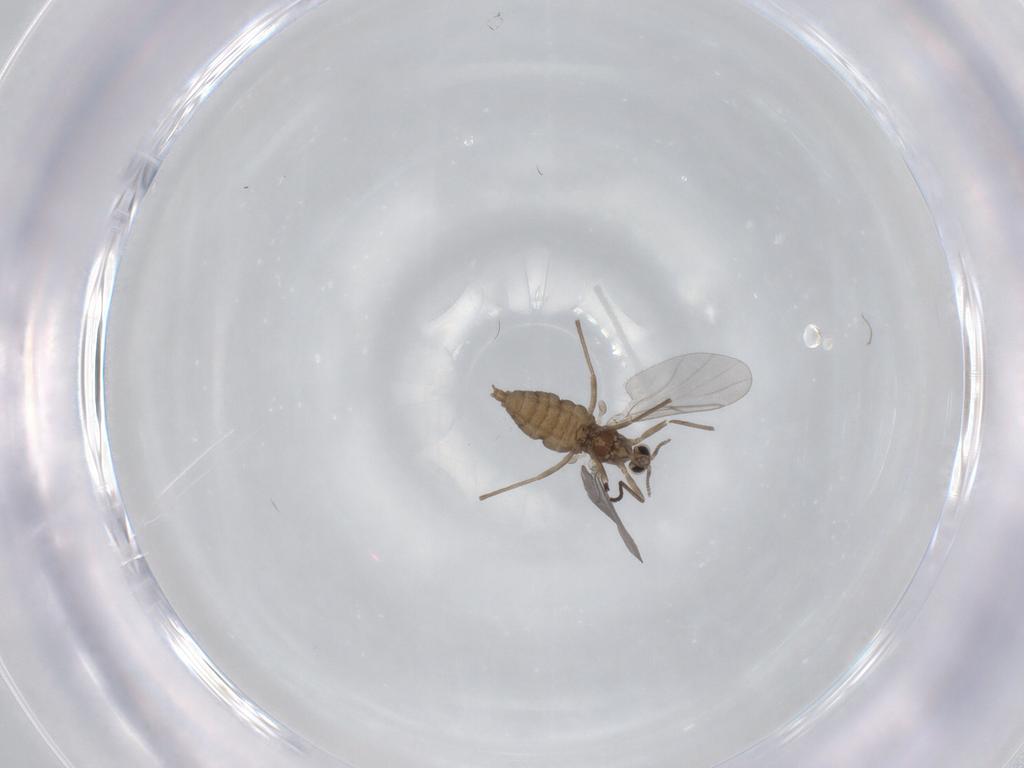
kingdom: Animalia
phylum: Arthropoda
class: Insecta
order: Diptera
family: Cecidomyiidae
